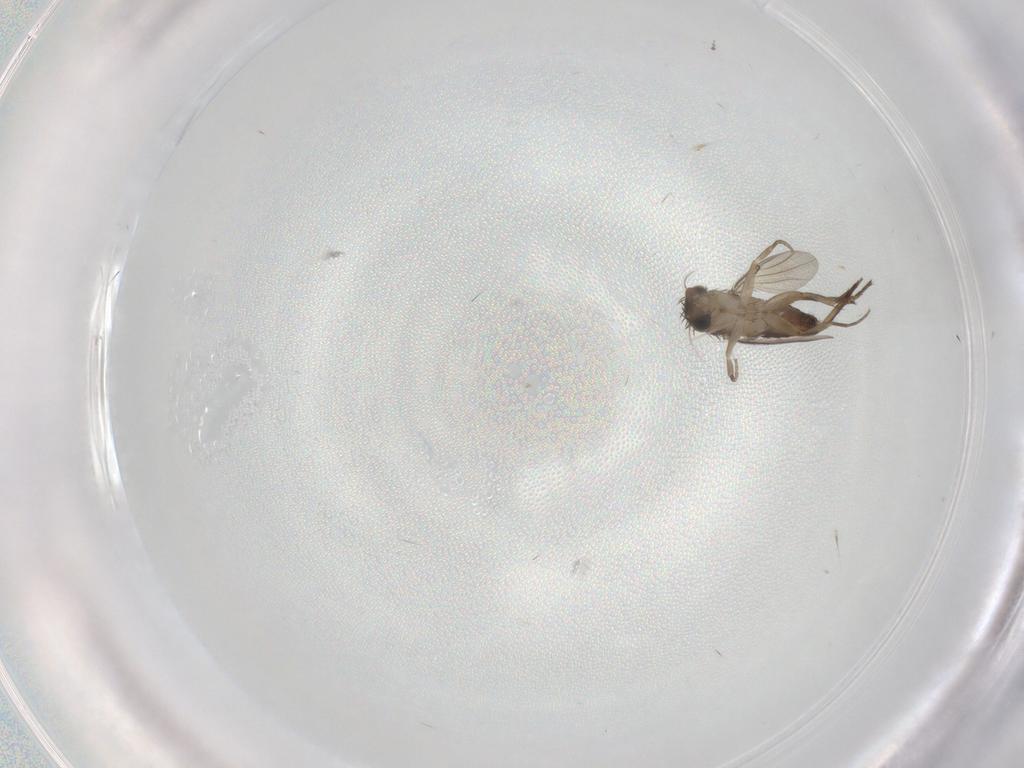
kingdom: Animalia
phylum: Arthropoda
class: Insecta
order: Diptera
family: Phoridae
